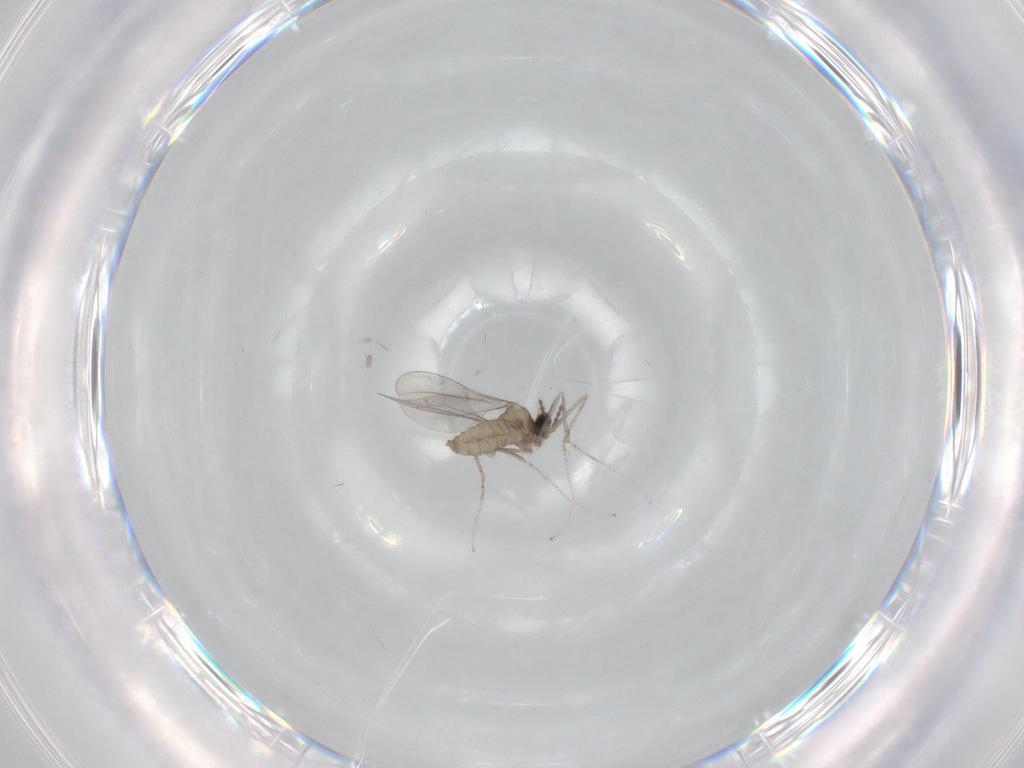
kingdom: Animalia
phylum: Arthropoda
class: Insecta
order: Diptera
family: Cecidomyiidae
